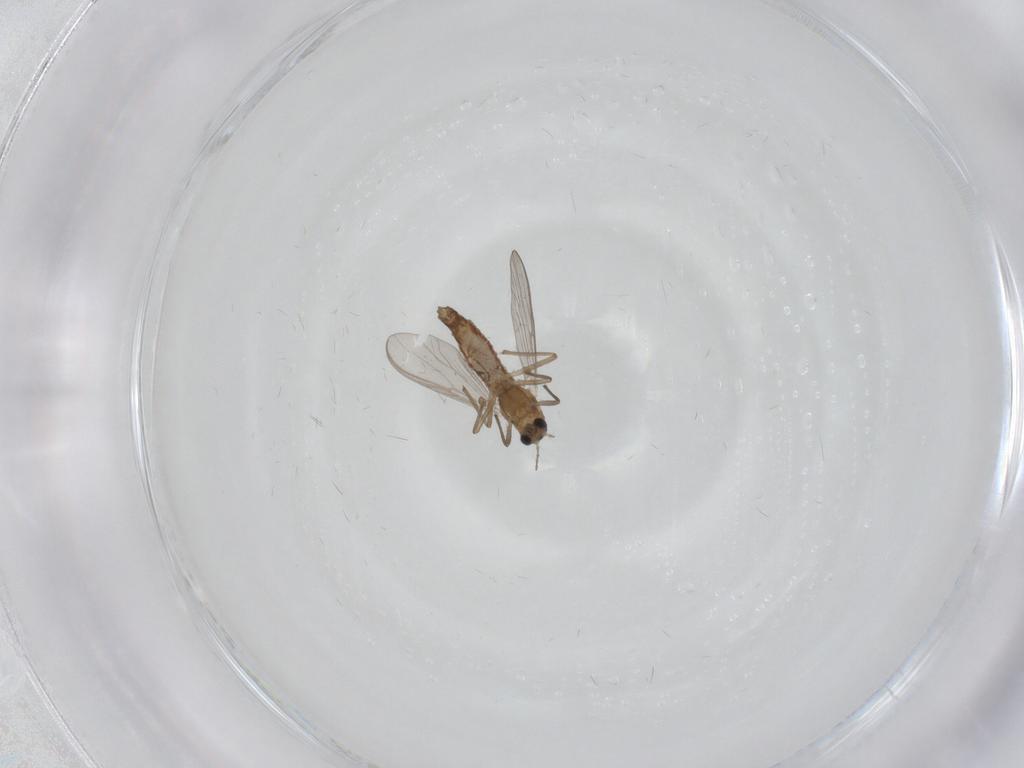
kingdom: Animalia
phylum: Arthropoda
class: Insecta
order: Diptera
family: Chironomidae
